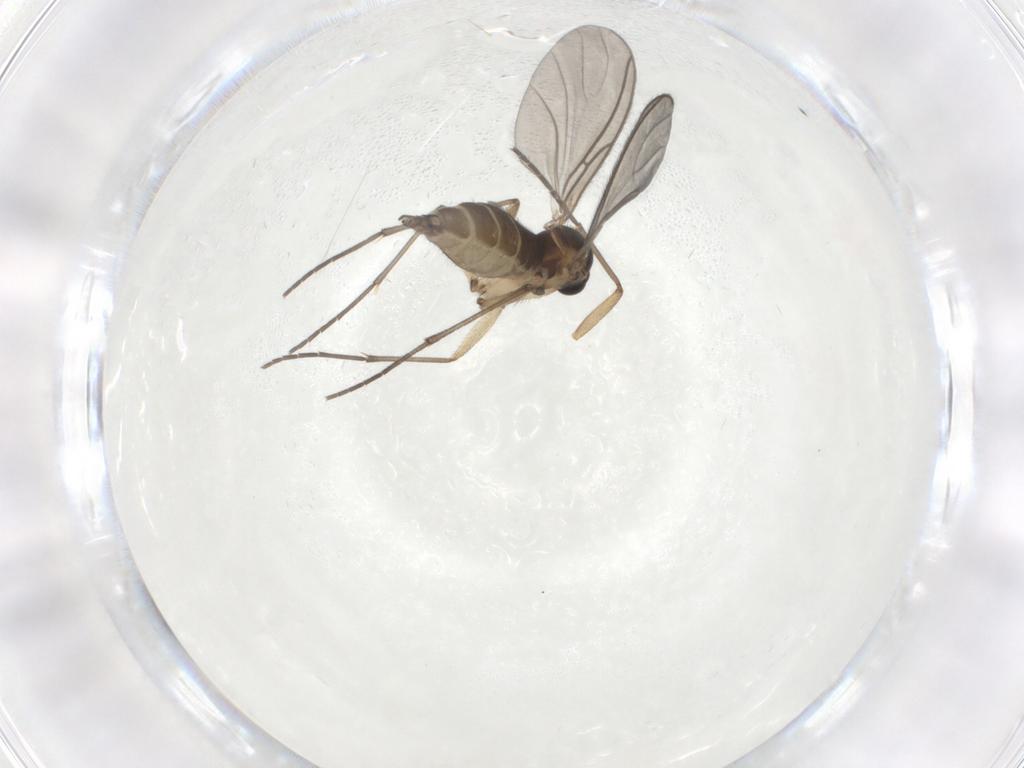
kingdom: Animalia
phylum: Arthropoda
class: Insecta
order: Diptera
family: Sciaridae
